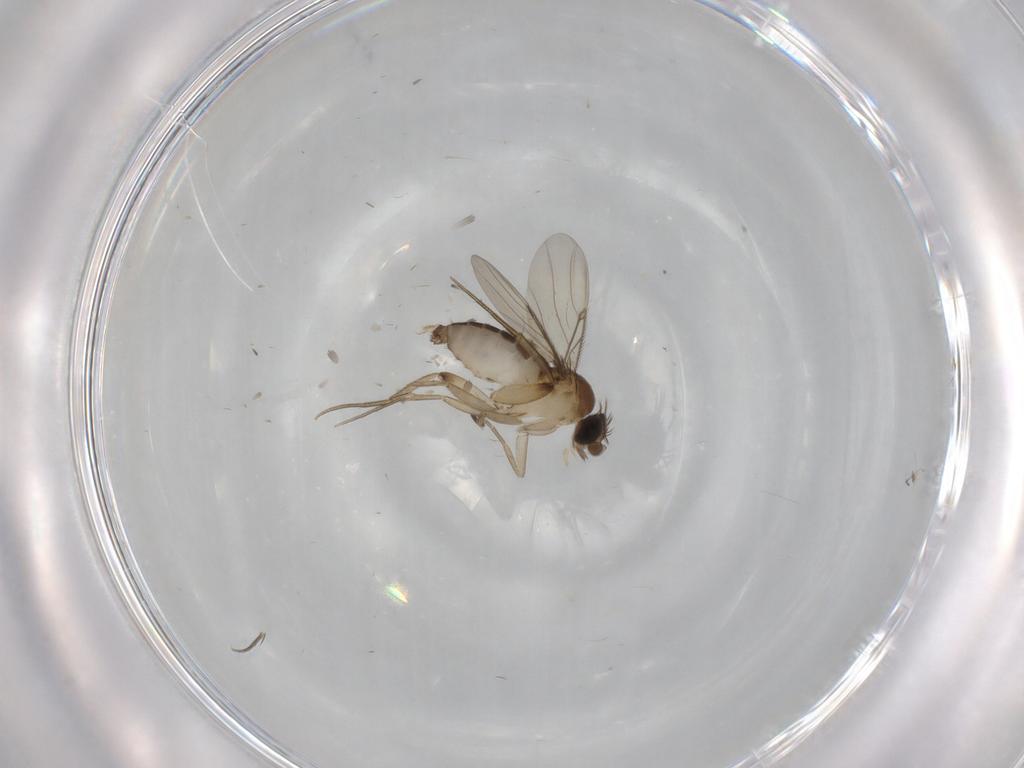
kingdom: Animalia
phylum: Arthropoda
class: Insecta
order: Diptera
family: Phoridae
